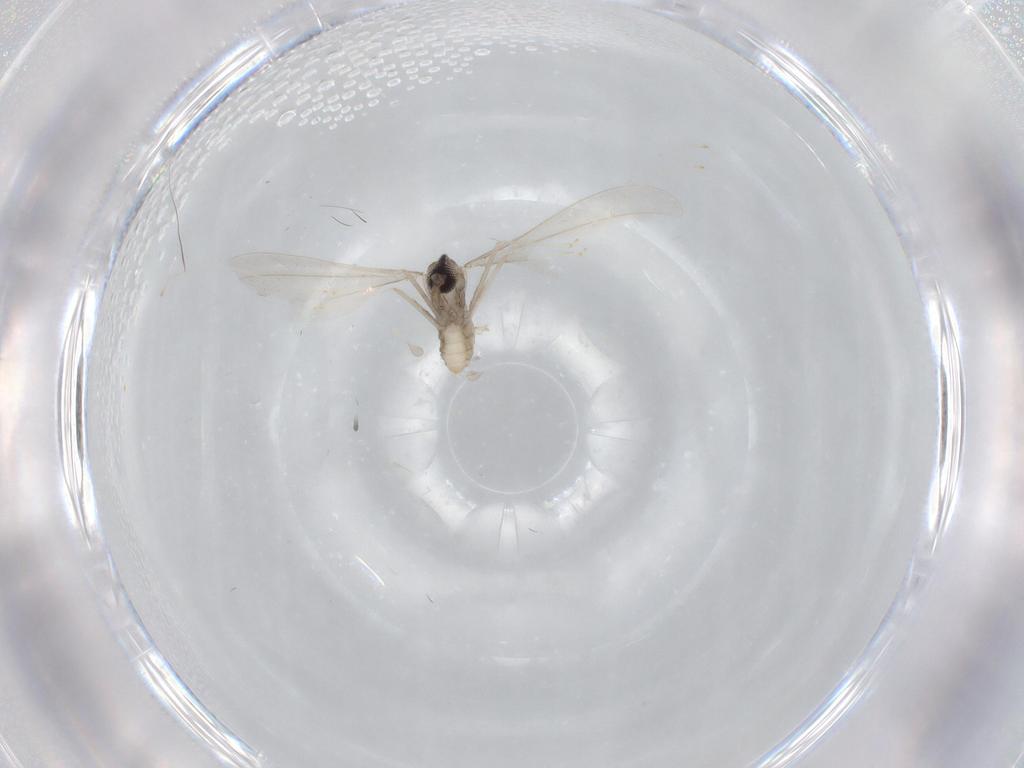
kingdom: Animalia
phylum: Arthropoda
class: Insecta
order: Diptera
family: Cecidomyiidae
